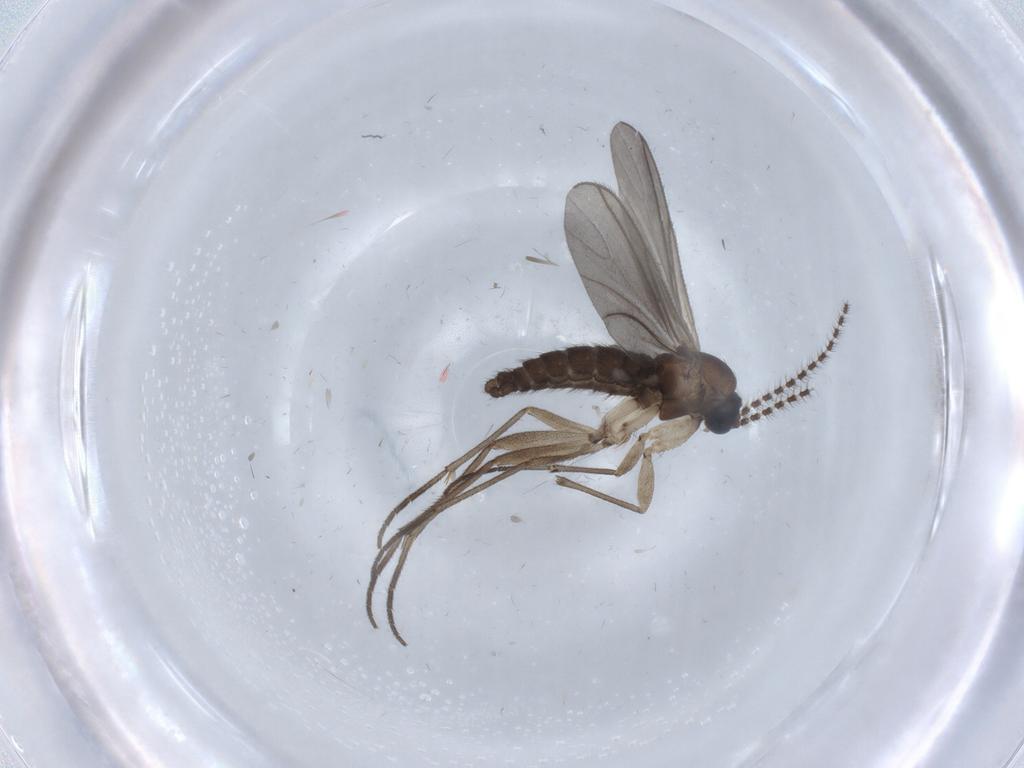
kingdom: Animalia
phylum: Arthropoda
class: Insecta
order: Diptera
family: Sciaridae
